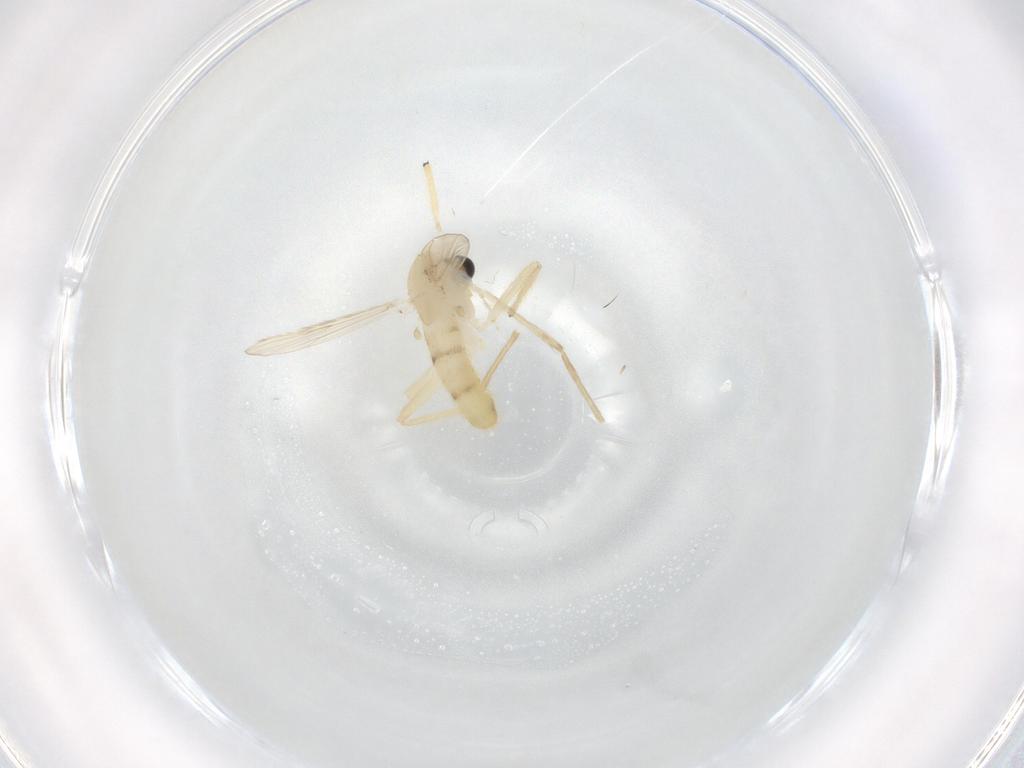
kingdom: Animalia
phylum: Arthropoda
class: Insecta
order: Diptera
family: Chironomidae
